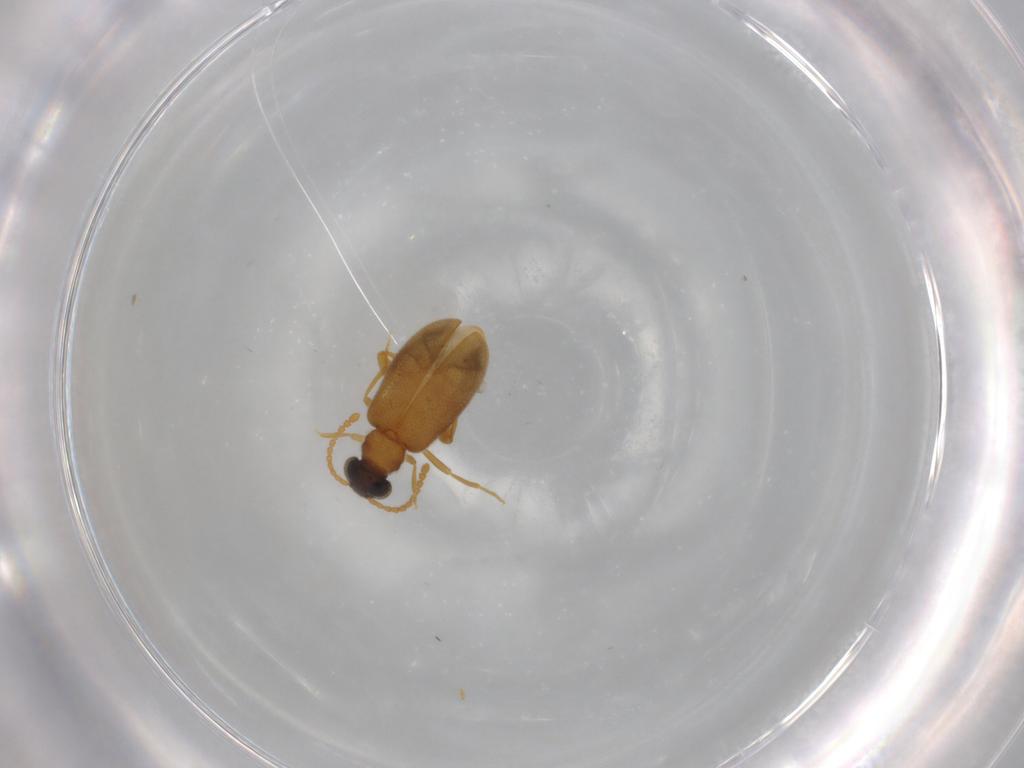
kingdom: Animalia
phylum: Arthropoda
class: Insecta
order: Coleoptera
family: Aderidae
